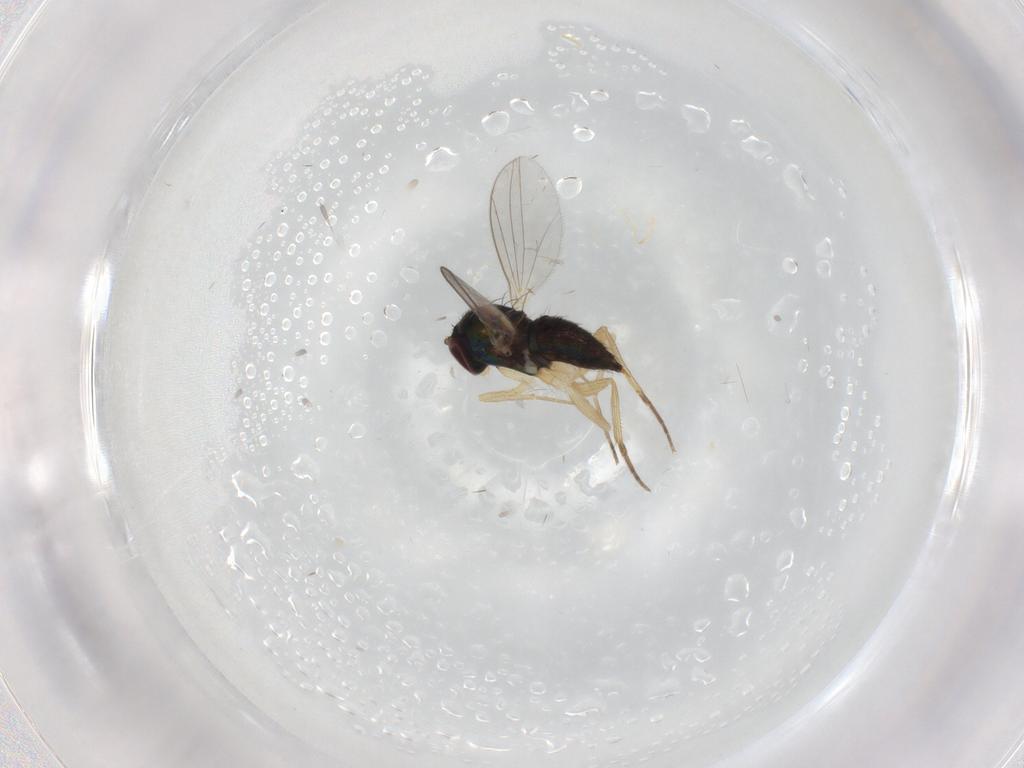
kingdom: Animalia
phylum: Arthropoda
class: Insecta
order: Diptera
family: Dolichopodidae
